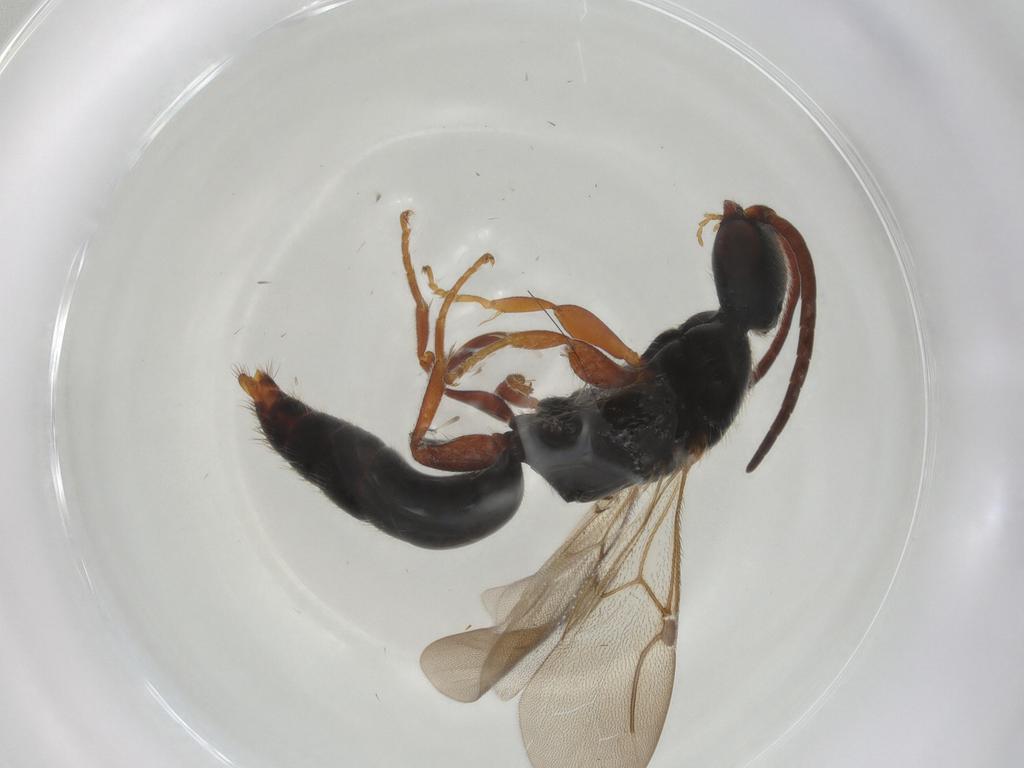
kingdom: Animalia
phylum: Arthropoda
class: Insecta
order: Hymenoptera
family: Bethylidae
